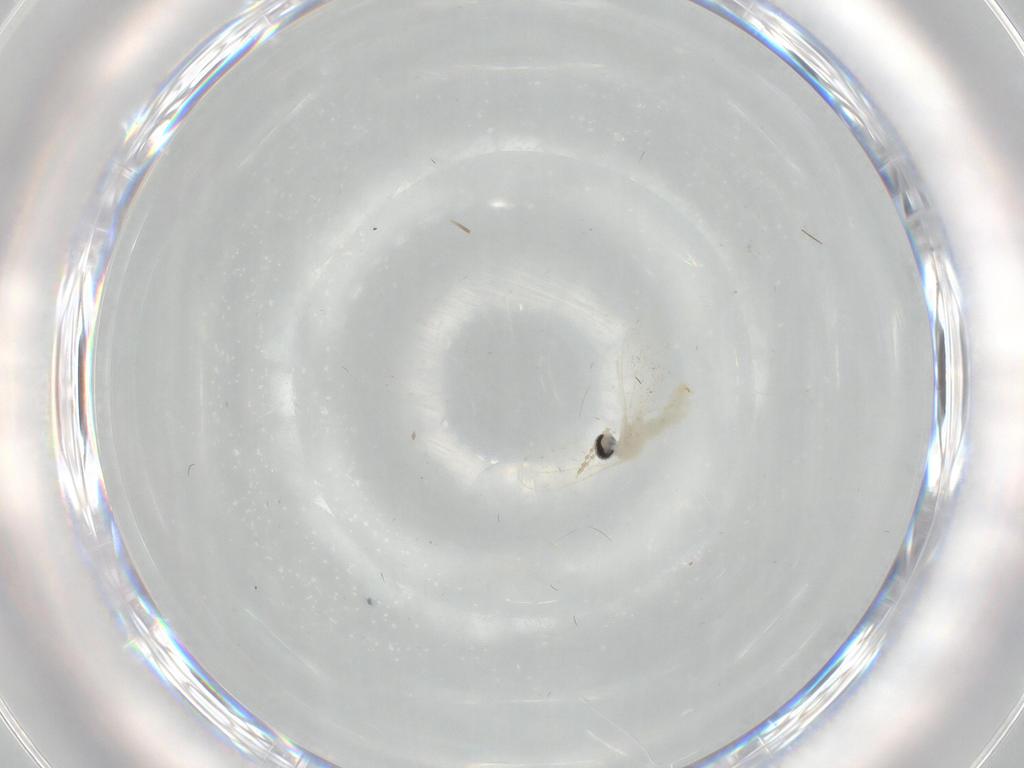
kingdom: Animalia
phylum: Arthropoda
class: Insecta
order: Diptera
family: Cecidomyiidae
